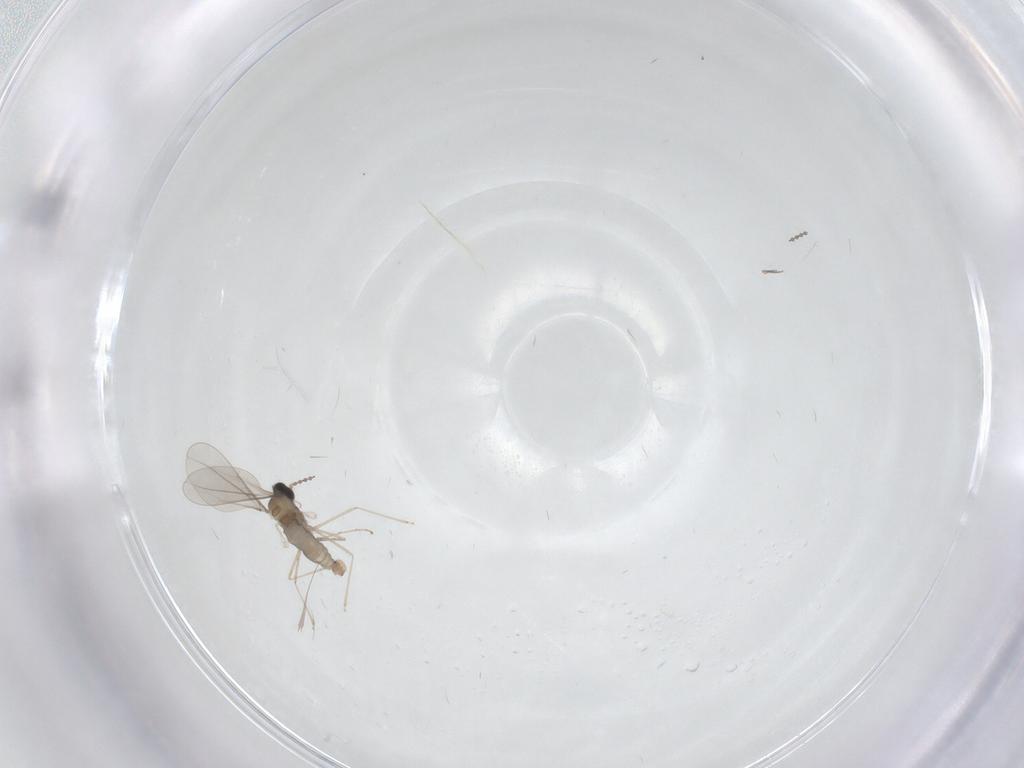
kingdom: Animalia
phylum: Arthropoda
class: Insecta
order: Diptera
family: Cecidomyiidae
